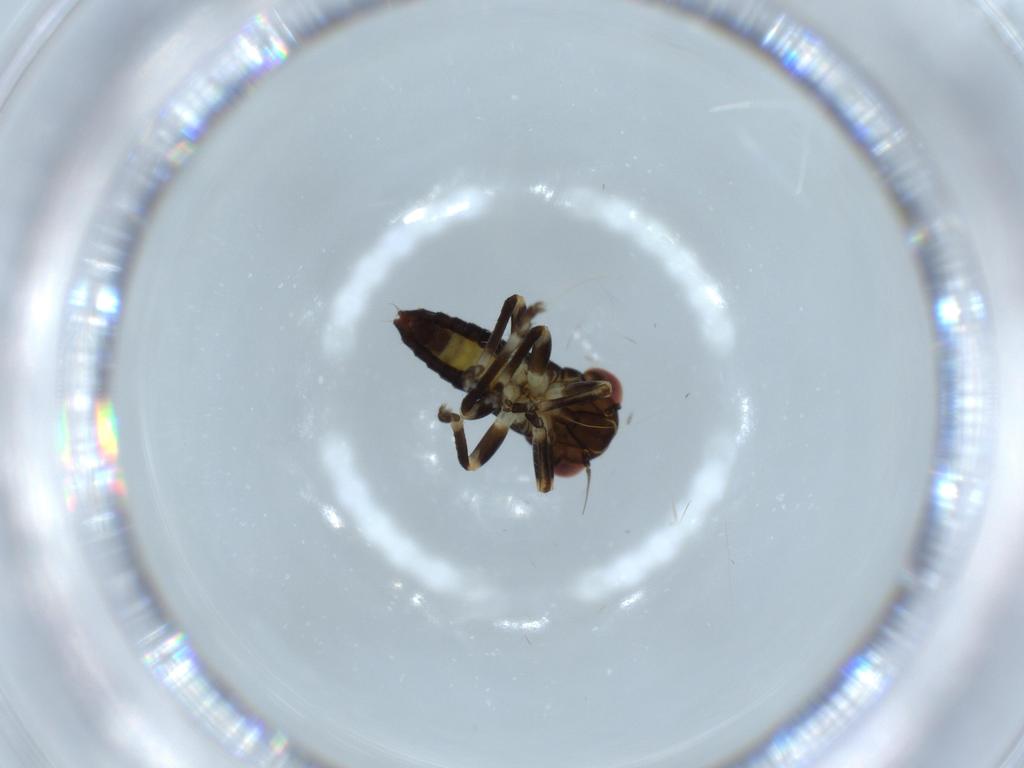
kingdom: Animalia
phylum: Arthropoda
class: Insecta
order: Hemiptera
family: Cicadellidae
